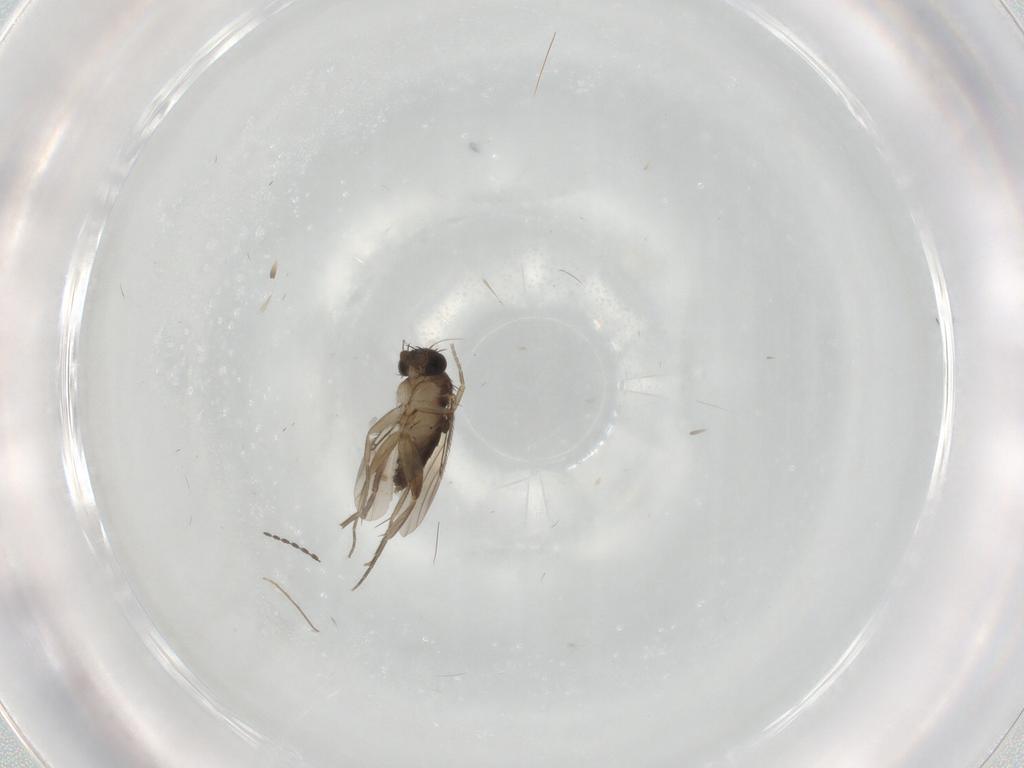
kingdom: Animalia
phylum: Arthropoda
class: Insecta
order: Diptera
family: Phoridae
